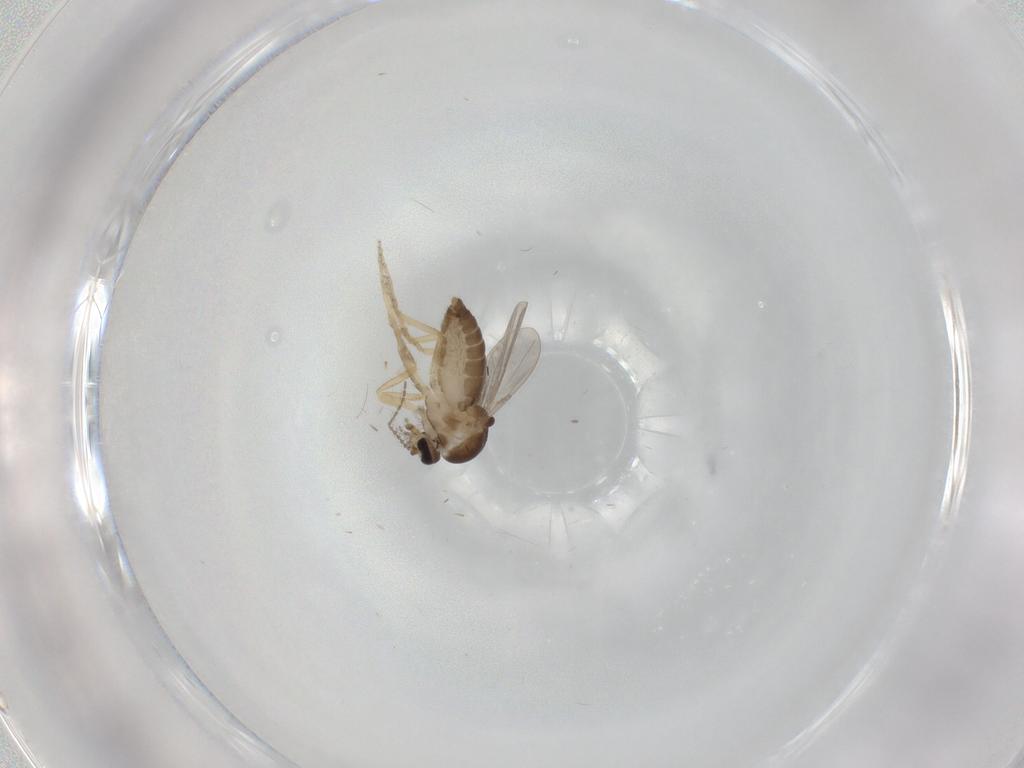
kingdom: Animalia
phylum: Arthropoda
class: Insecta
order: Diptera
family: Ceratopogonidae
